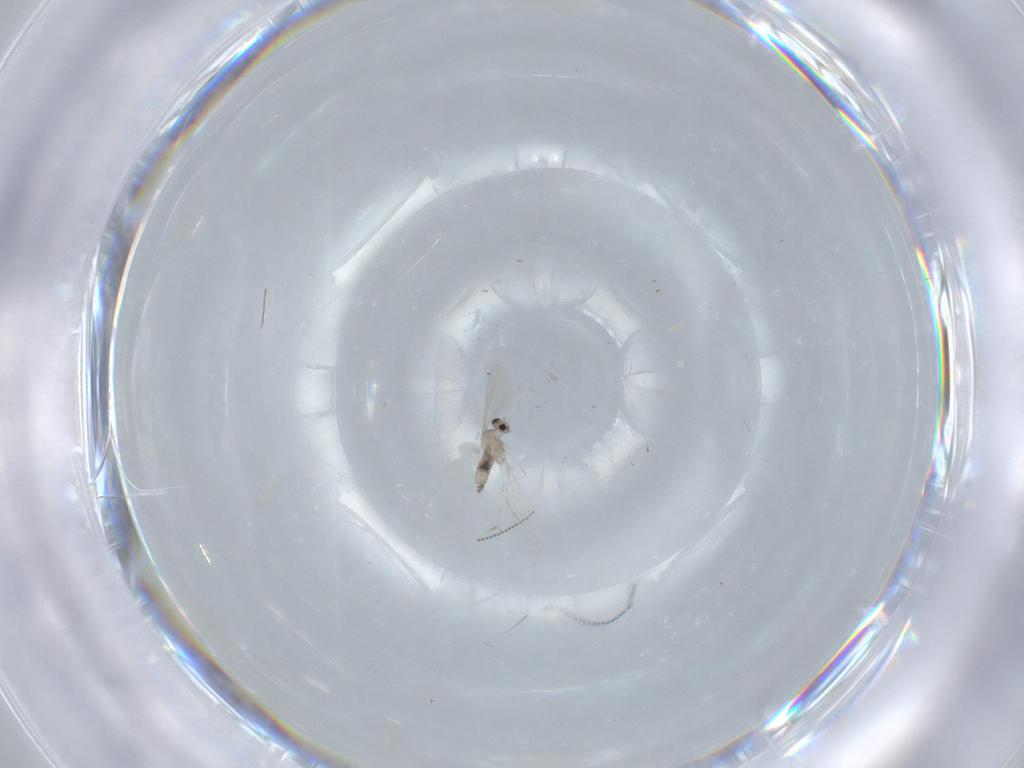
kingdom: Animalia
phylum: Arthropoda
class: Insecta
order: Diptera
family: Cecidomyiidae
